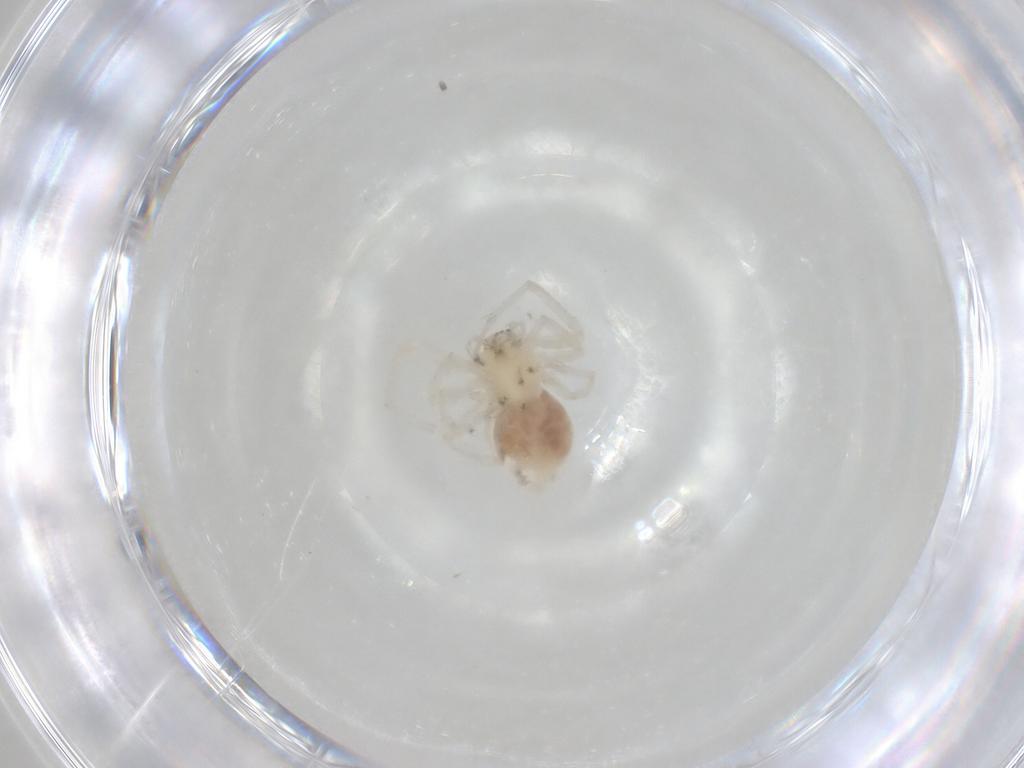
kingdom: Animalia
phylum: Arthropoda
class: Arachnida
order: Araneae
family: Anyphaenidae
